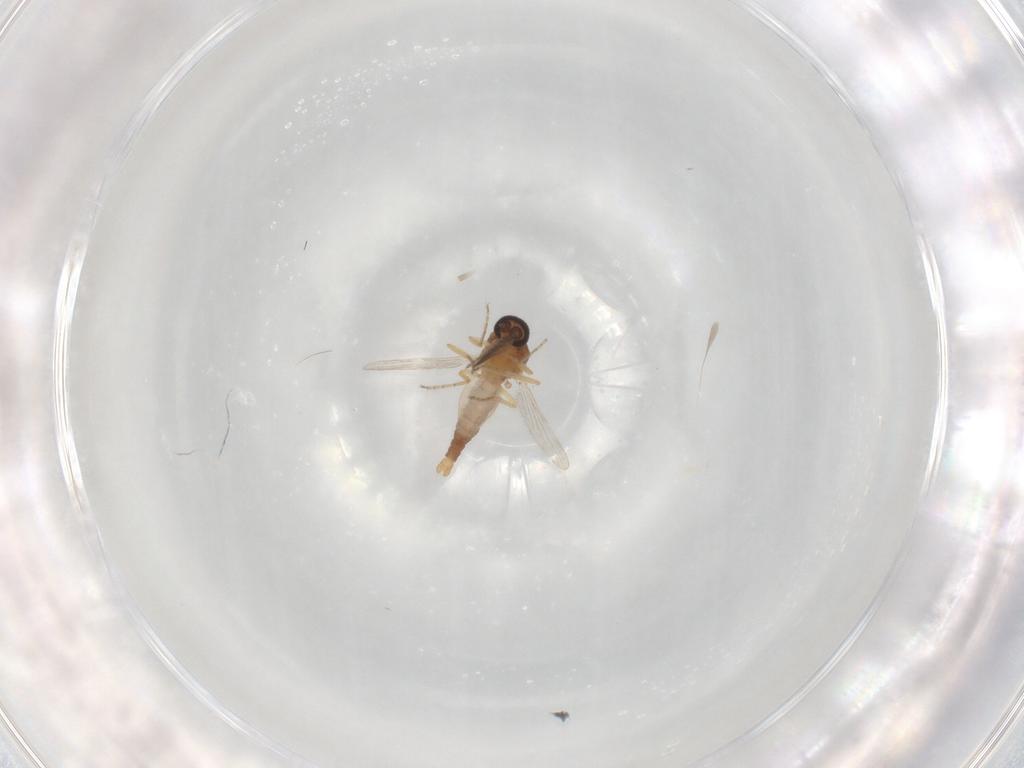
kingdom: Animalia
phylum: Arthropoda
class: Insecta
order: Diptera
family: Ceratopogonidae
